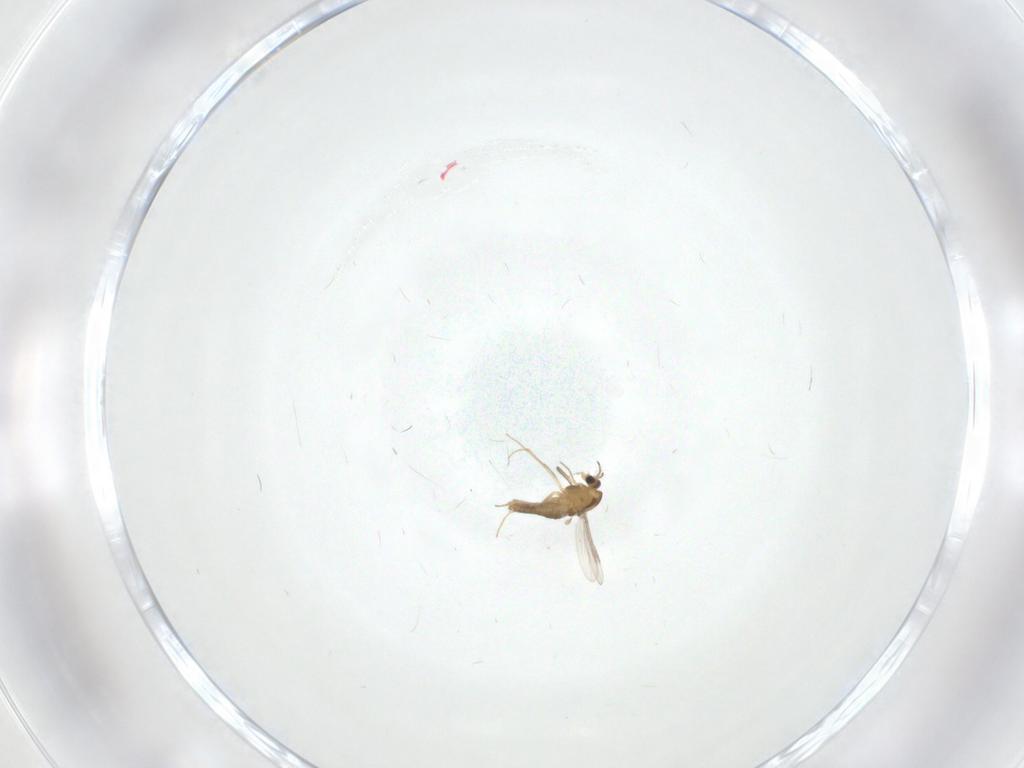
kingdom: Animalia
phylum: Arthropoda
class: Insecta
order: Diptera
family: Chironomidae
